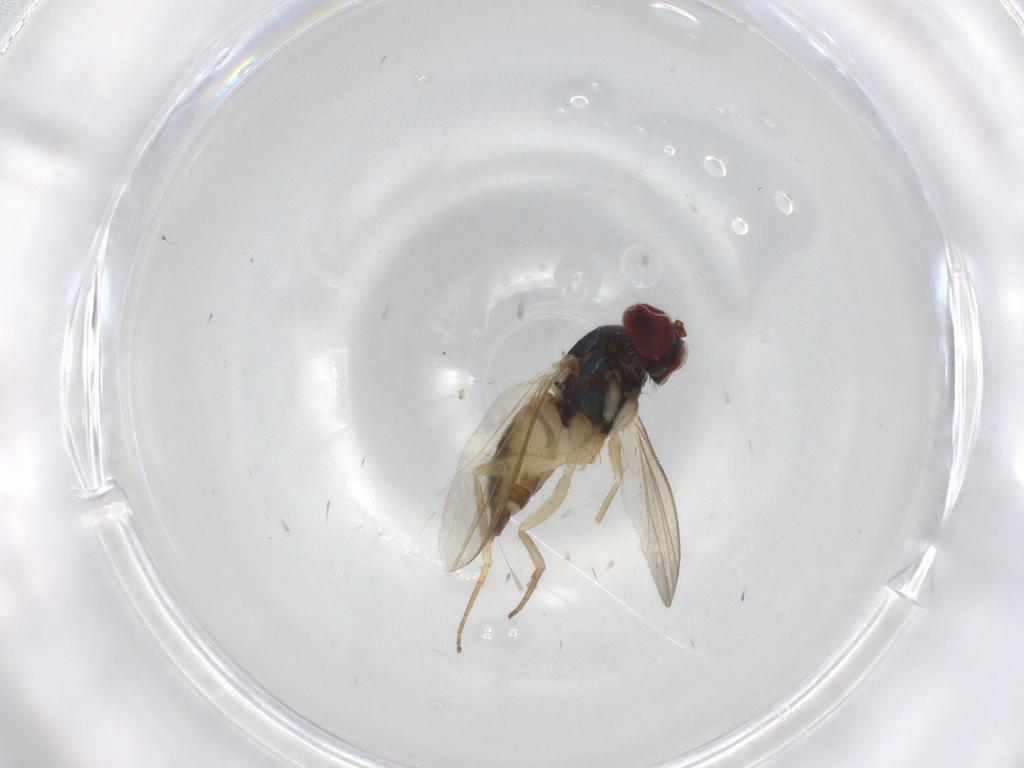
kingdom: Animalia
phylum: Arthropoda
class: Insecta
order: Diptera
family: Dolichopodidae
